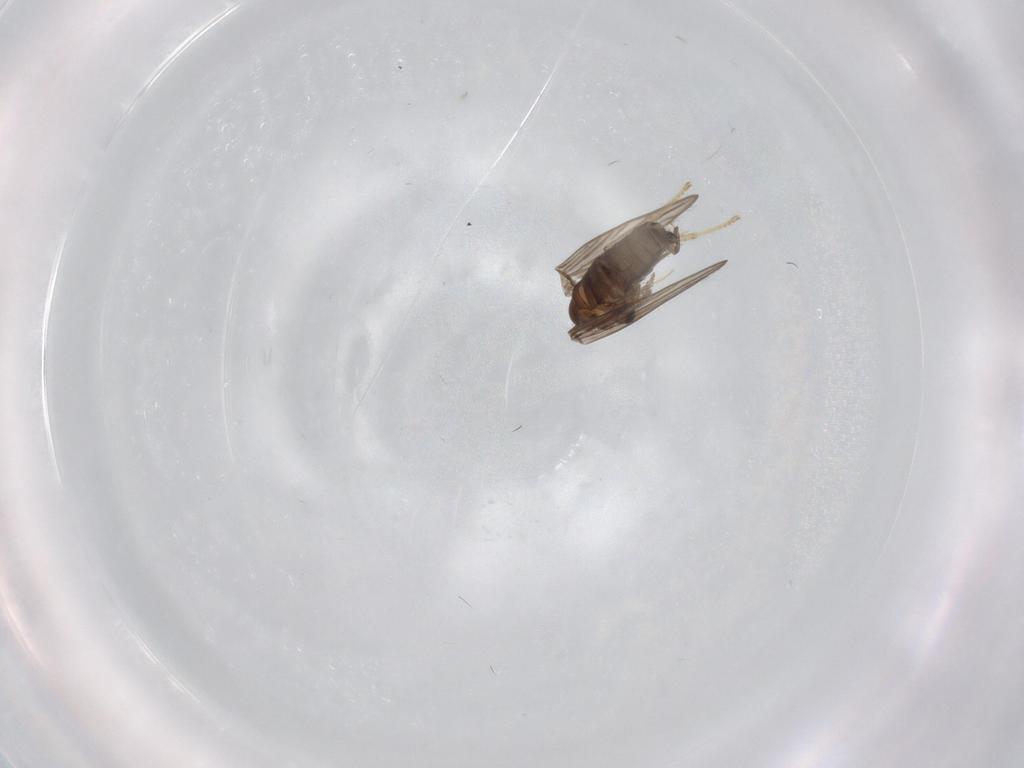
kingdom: Animalia
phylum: Arthropoda
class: Insecta
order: Diptera
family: Psychodidae
